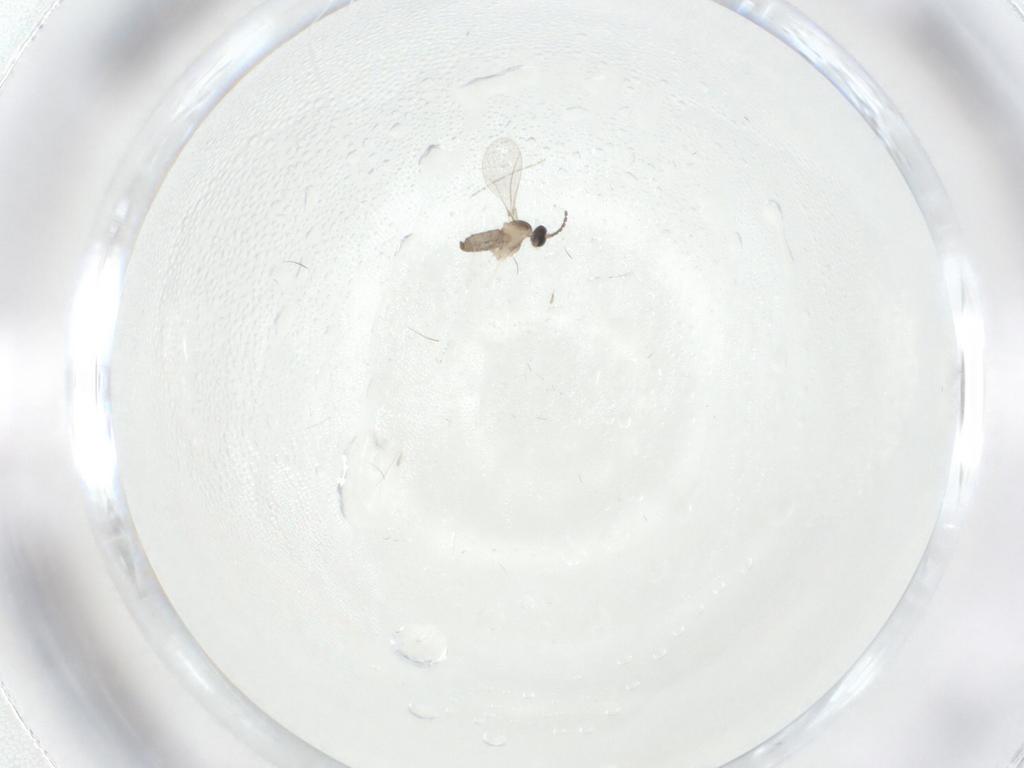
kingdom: Animalia
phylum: Arthropoda
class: Insecta
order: Diptera
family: Cecidomyiidae
